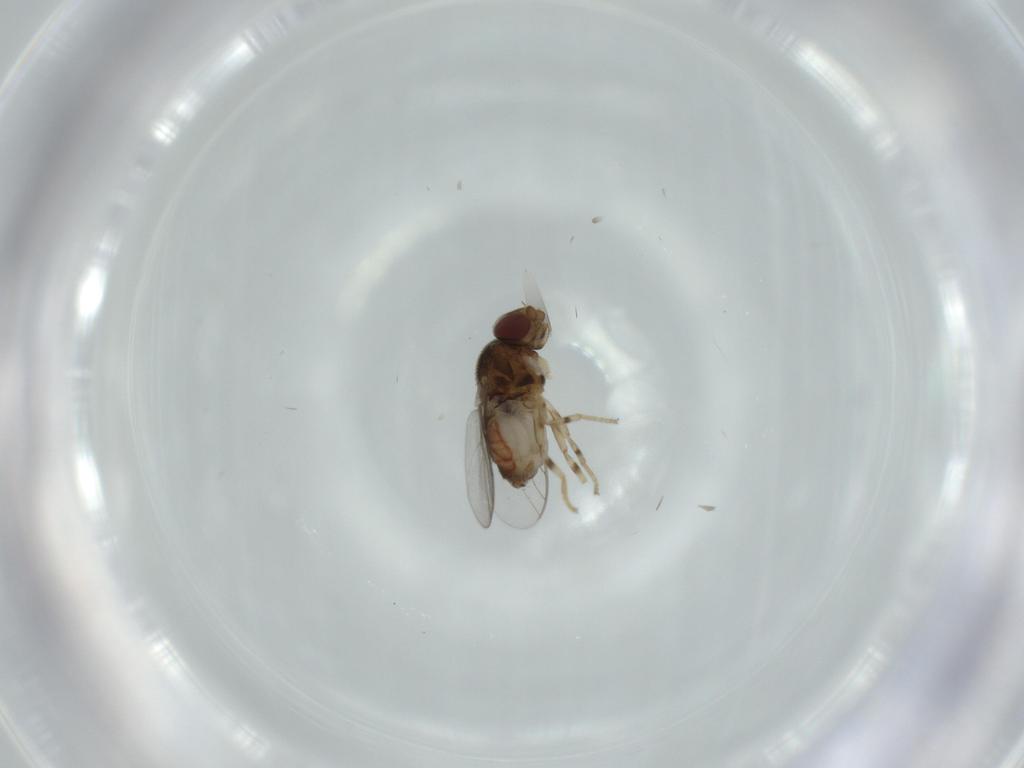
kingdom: Animalia
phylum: Arthropoda
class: Insecta
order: Diptera
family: Chloropidae
